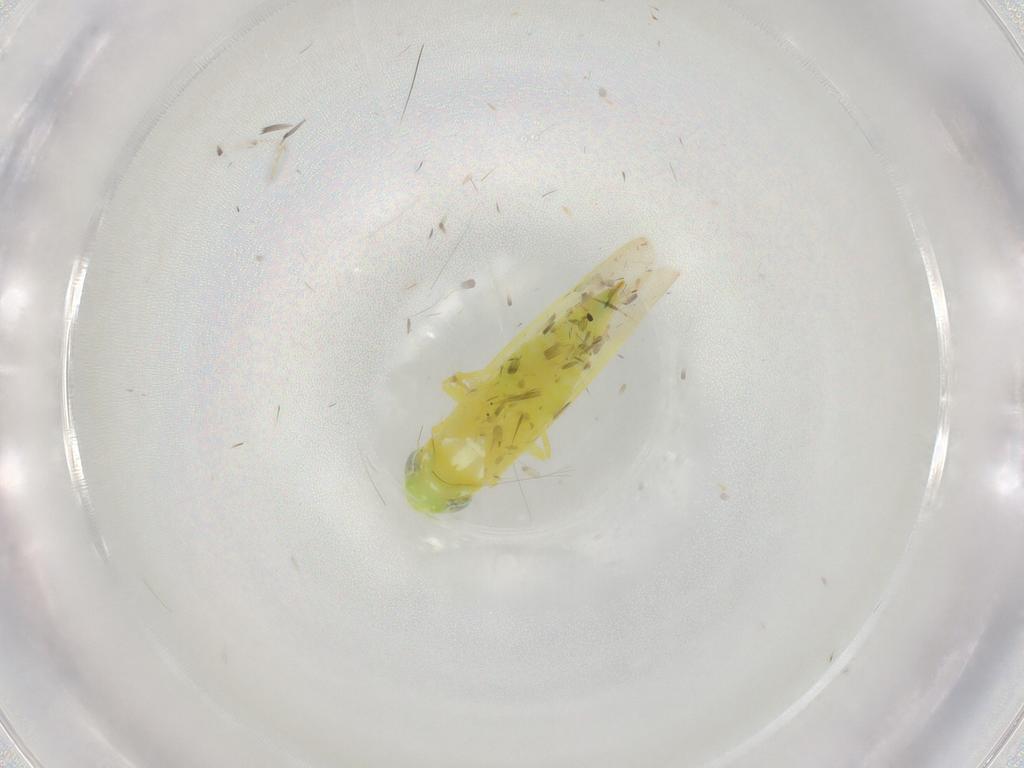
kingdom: Animalia
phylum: Arthropoda
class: Insecta
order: Hemiptera
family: Cicadellidae
